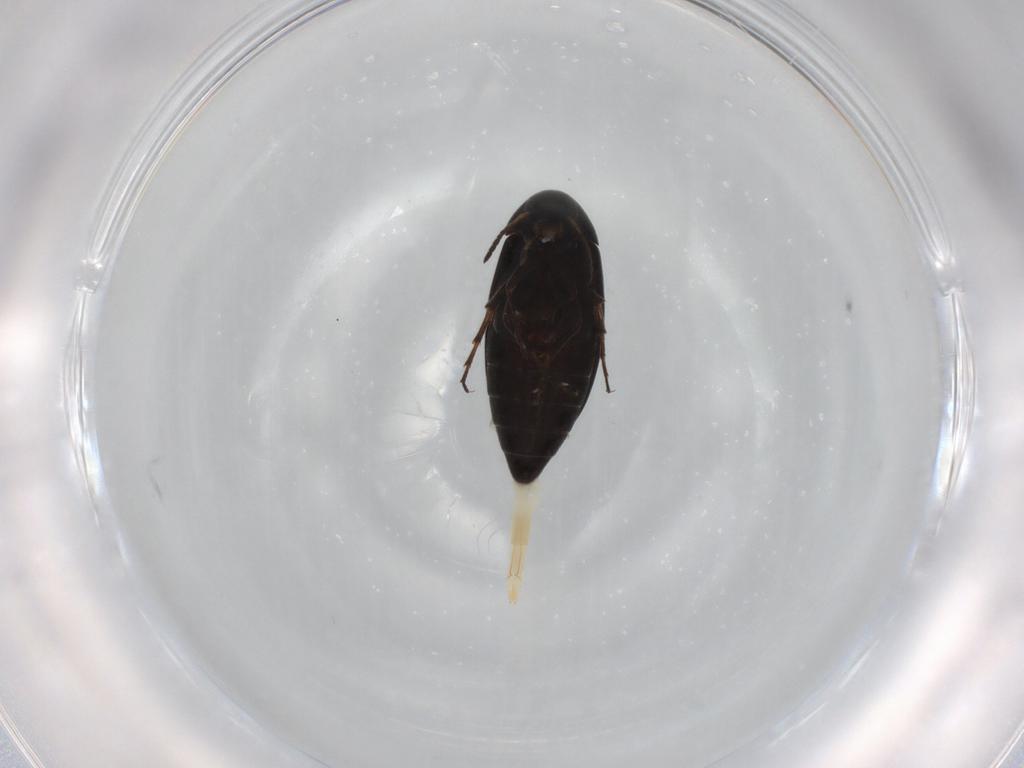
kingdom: Animalia
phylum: Arthropoda
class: Insecta
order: Coleoptera
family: Scraptiidae
